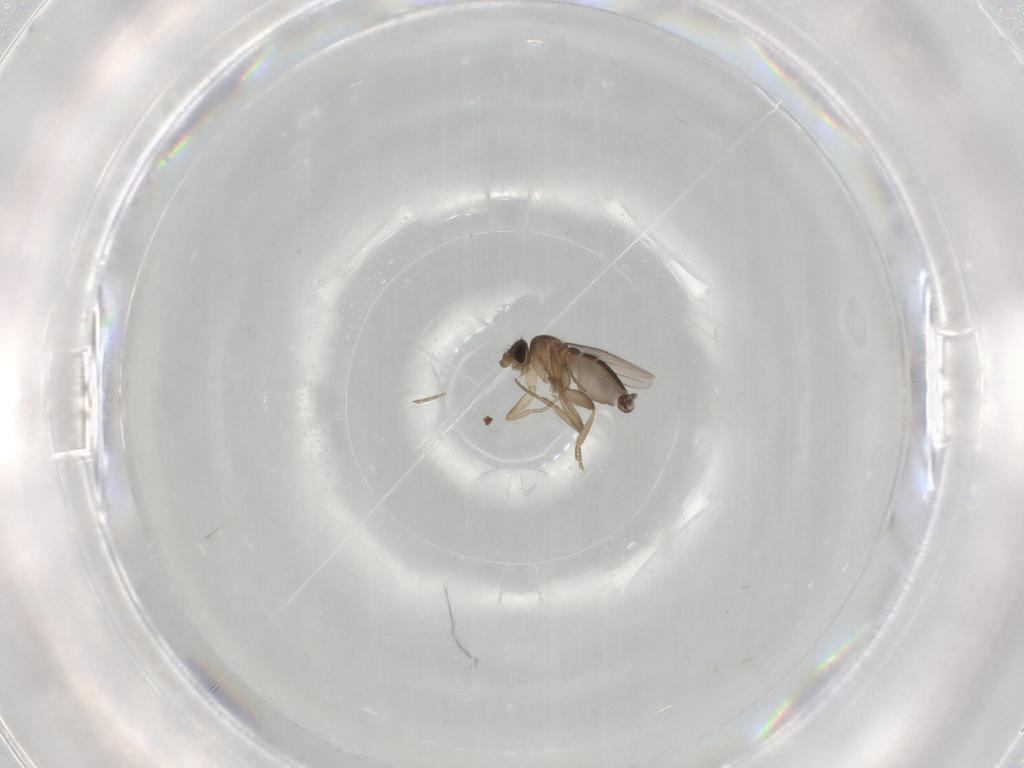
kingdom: Animalia
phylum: Arthropoda
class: Insecta
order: Diptera
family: Phoridae
